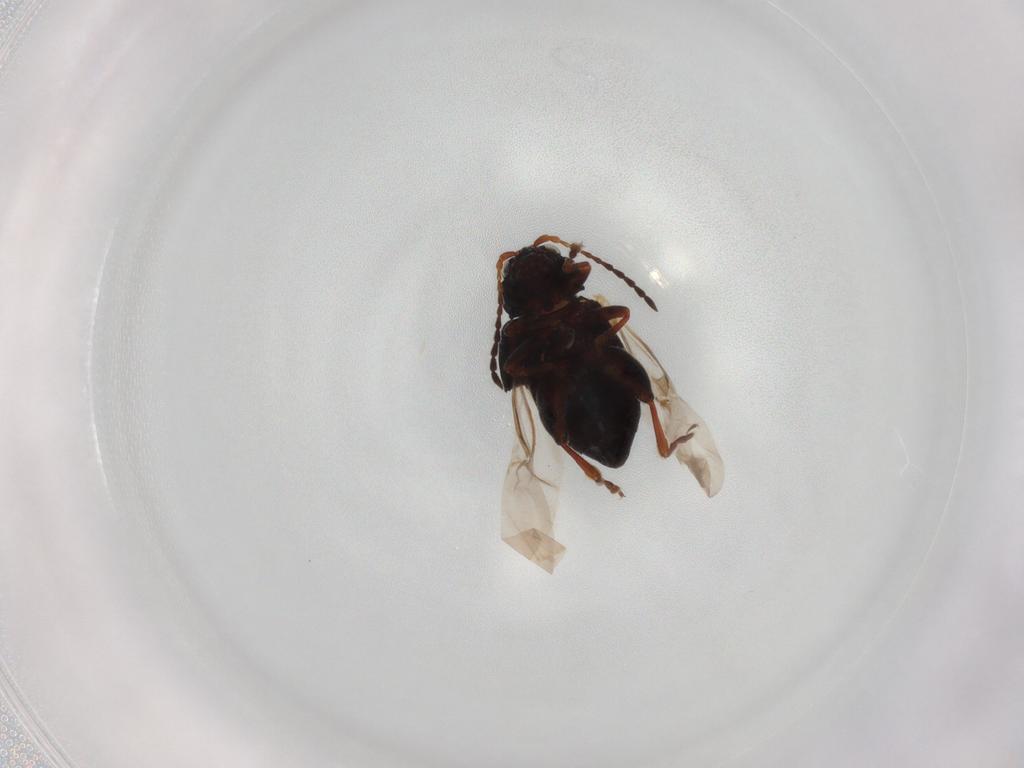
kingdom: Animalia
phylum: Arthropoda
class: Insecta
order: Coleoptera
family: Chrysomelidae
